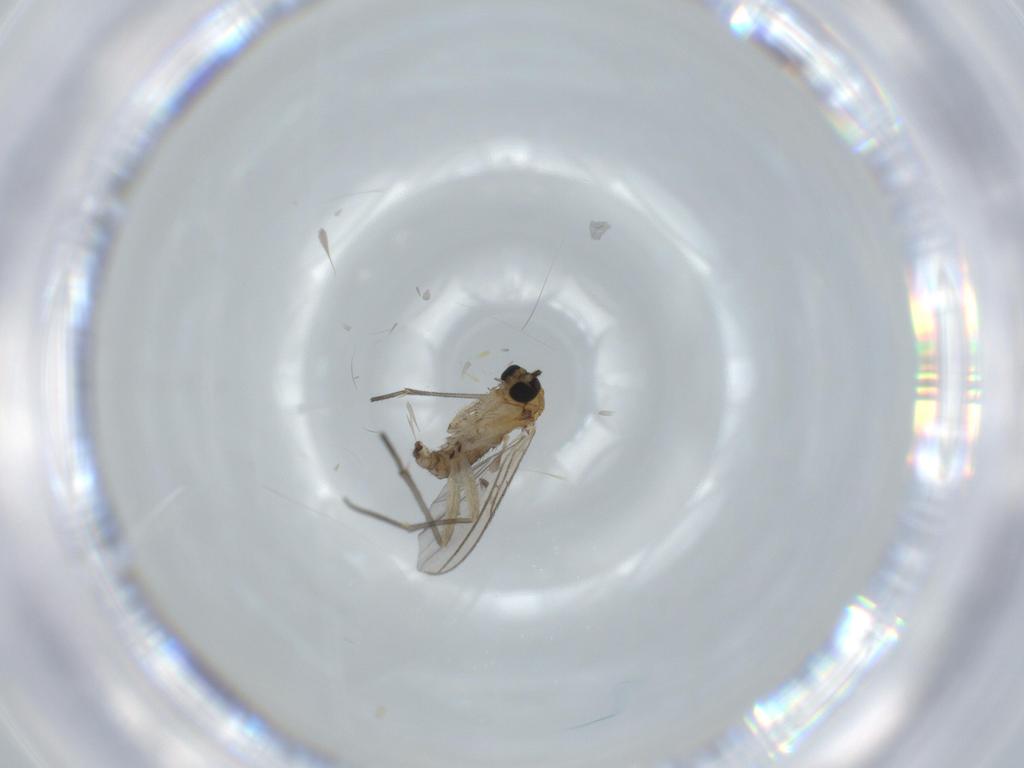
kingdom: Animalia
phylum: Arthropoda
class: Insecta
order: Diptera
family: Sciaridae
